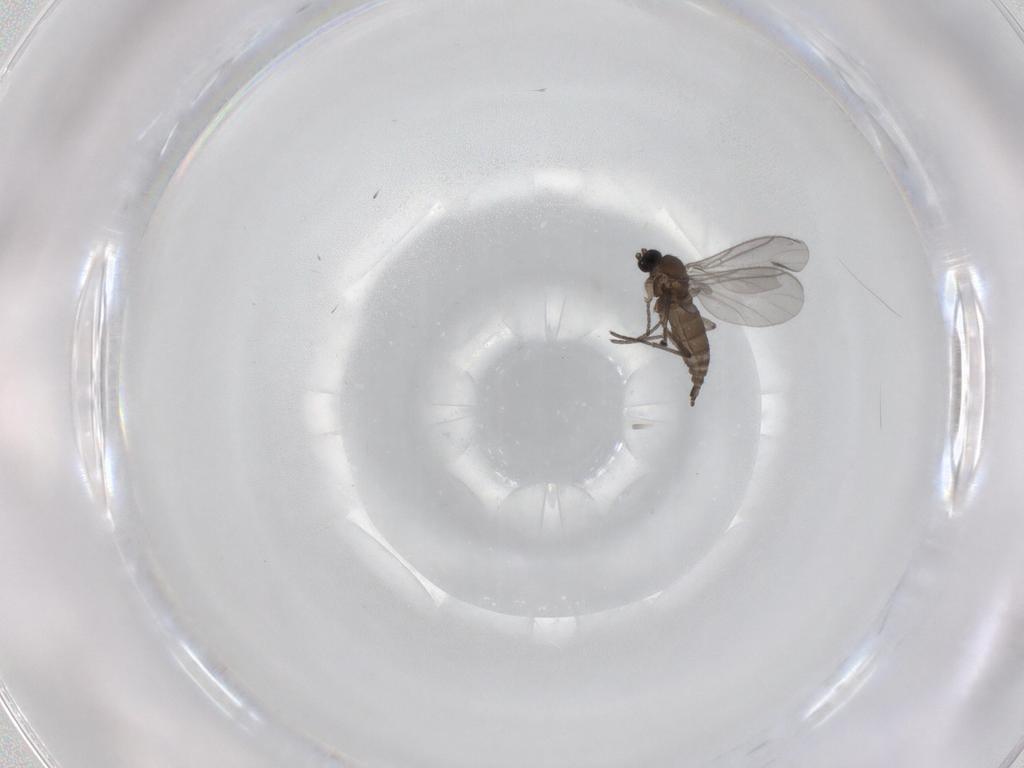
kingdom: Animalia
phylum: Arthropoda
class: Insecta
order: Diptera
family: Sciaridae
